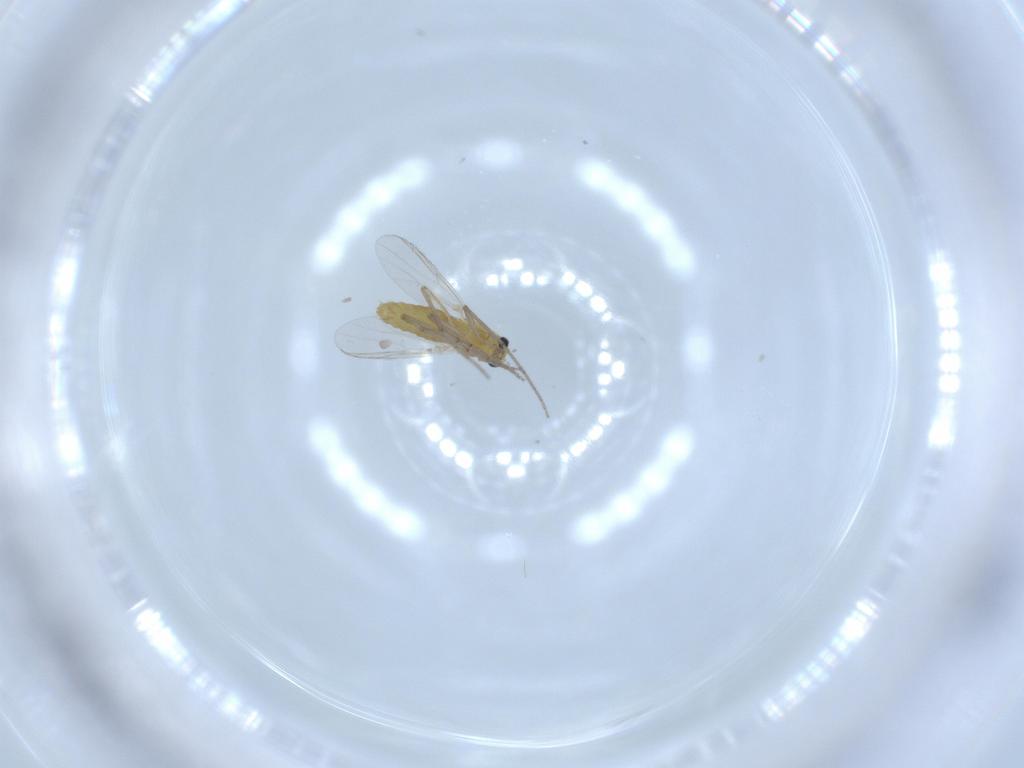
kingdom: Animalia
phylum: Arthropoda
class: Insecta
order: Diptera
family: Chironomidae
